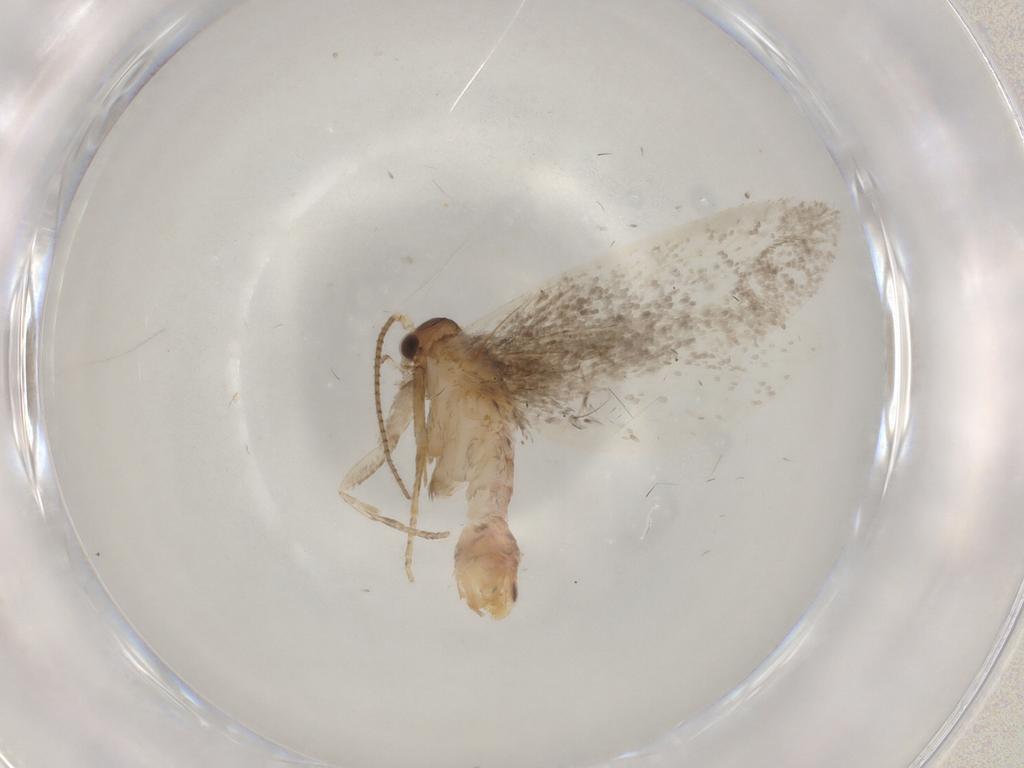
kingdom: Animalia
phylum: Arthropoda
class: Insecta
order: Lepidoptera
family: Dryadaulidae
